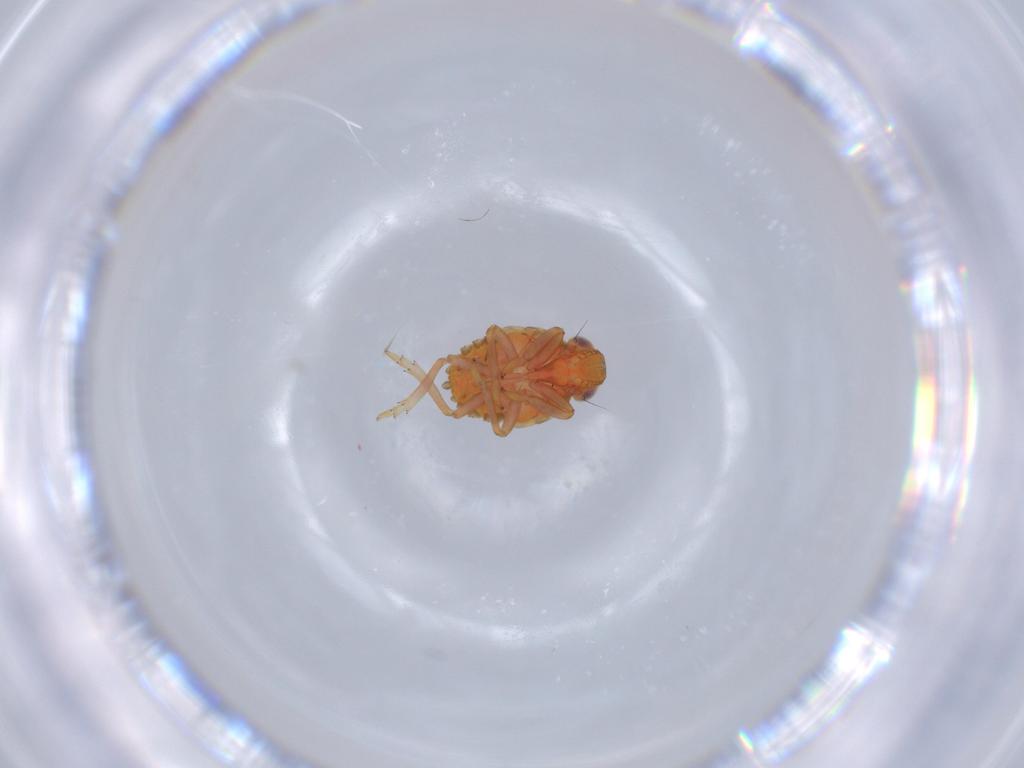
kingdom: Animalia
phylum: Arthropoda
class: Insecta
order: Hemiptera
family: Issidae
